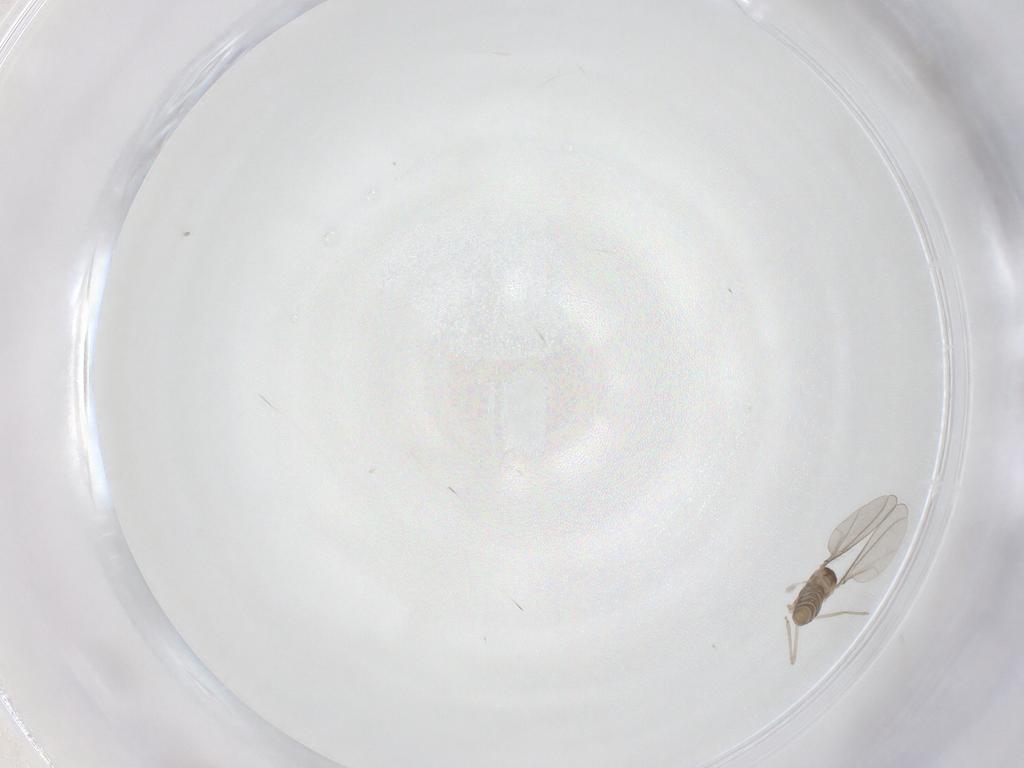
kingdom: Animalia
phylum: Arthropoda
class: Insecta
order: Diptera
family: Cecidomyiidae
